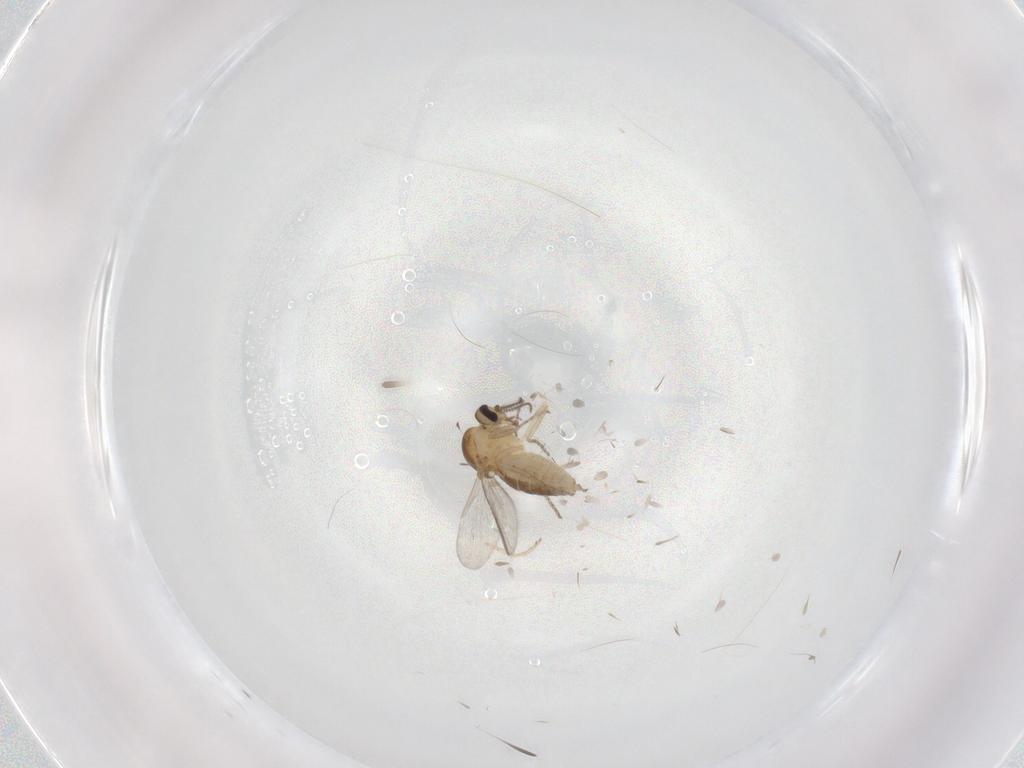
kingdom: Animalia
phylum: Arthropoda
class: Insecta
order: Diptera
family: Ceratopogonidae
